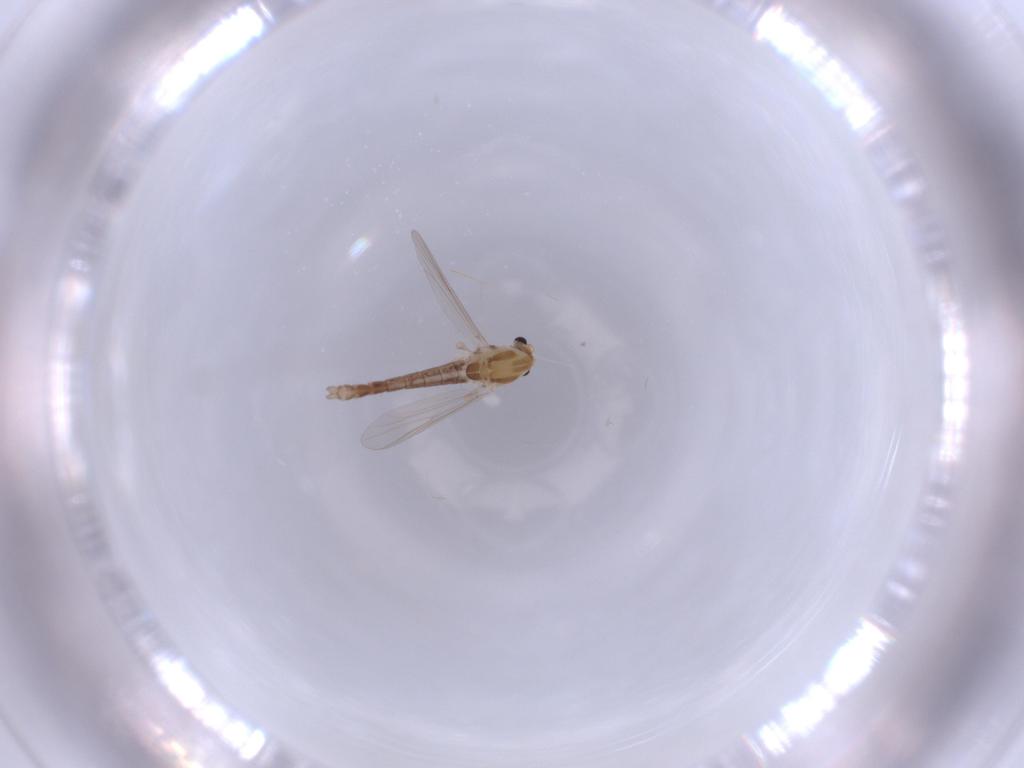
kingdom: Animalia
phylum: Arthropoda
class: Insecta
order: Diptera
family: Chironomidae
